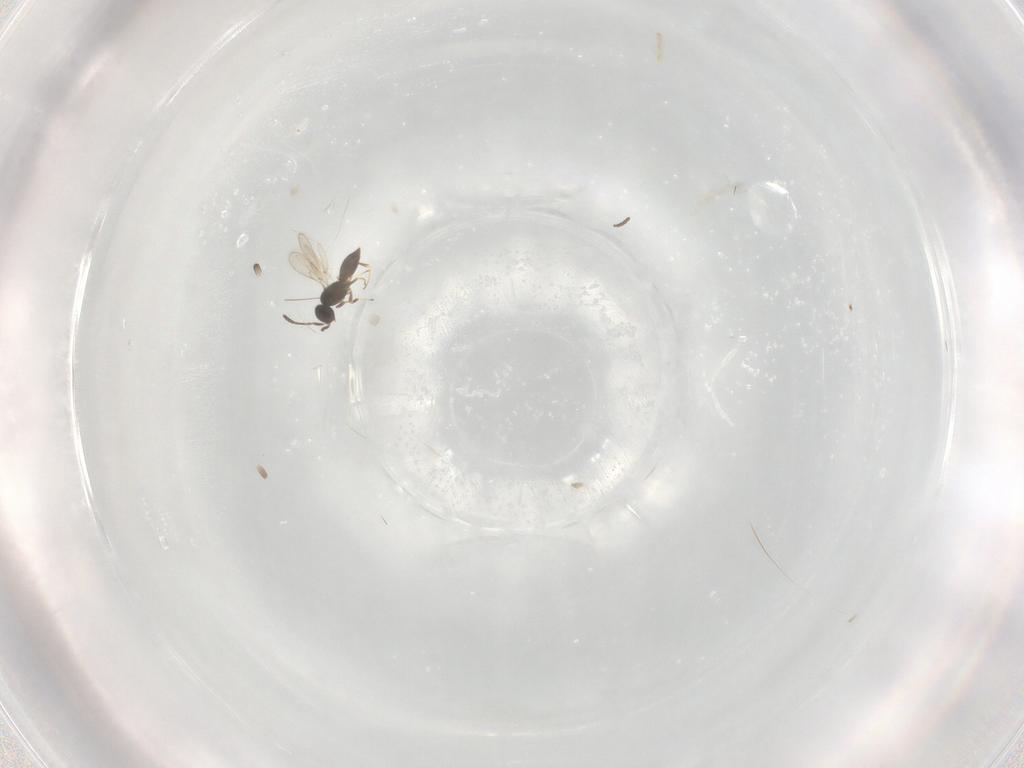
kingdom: Animalia
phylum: Arthropoda
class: Insecta
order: Hymenoptera
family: Scelionidae
